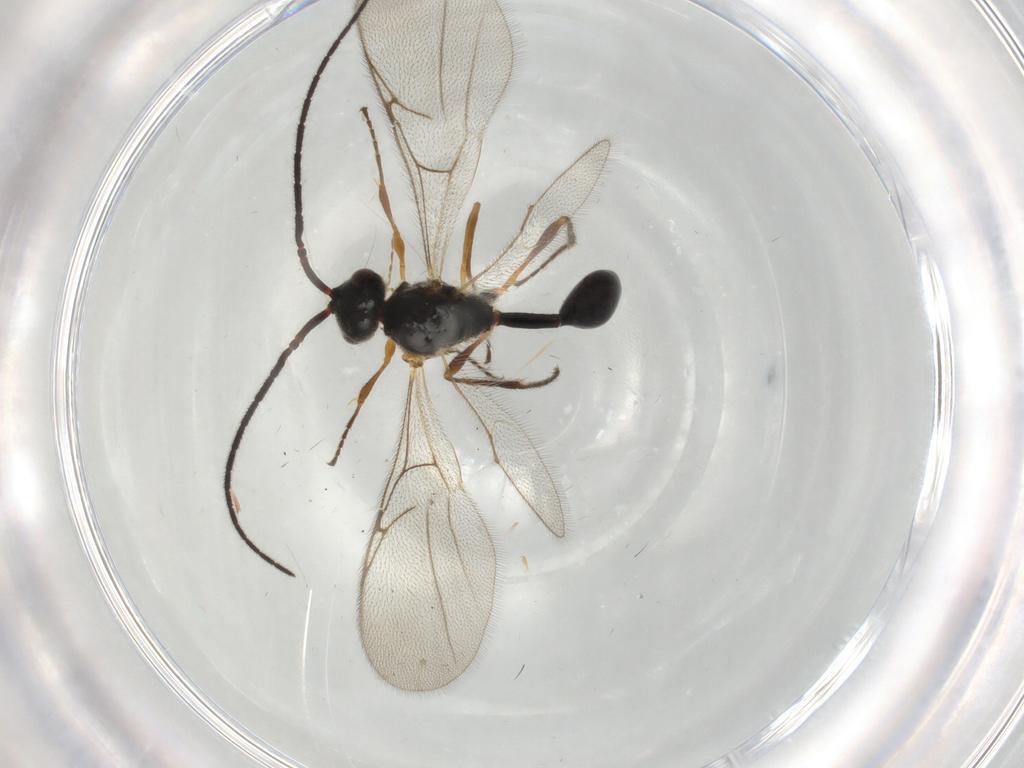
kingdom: Animalia
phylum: Arthropoda
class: Insecta
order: Hymenoptera
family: Diapriidae
